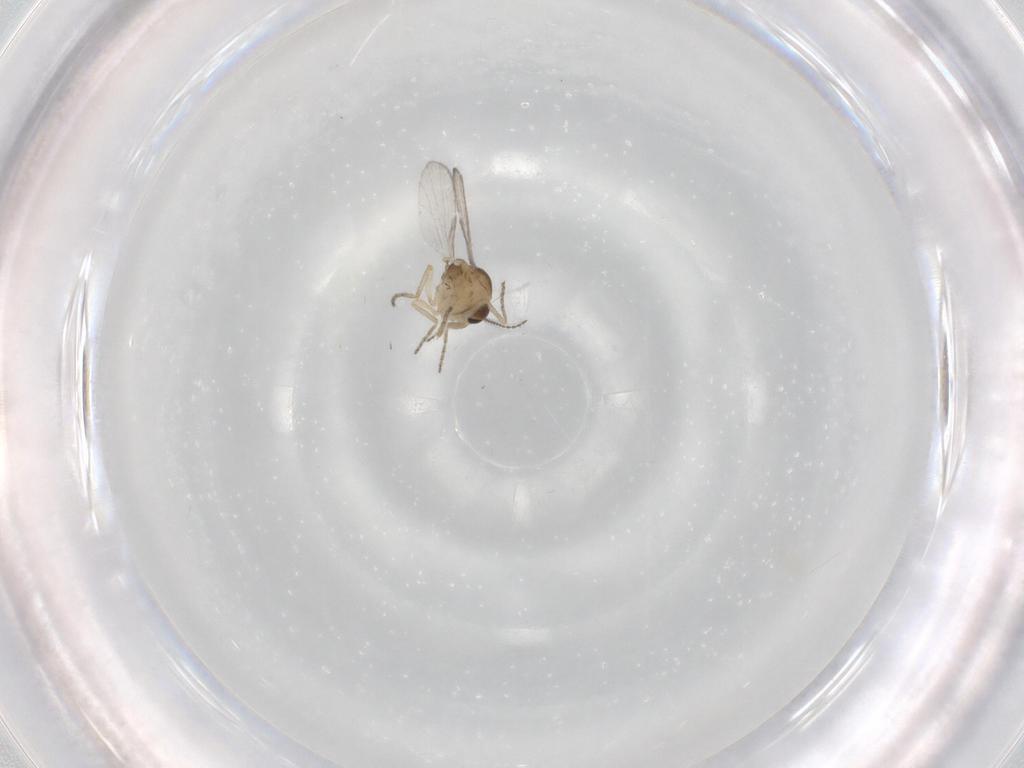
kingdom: Animalia
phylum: Arthropoda
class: Insecta
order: Diptera
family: Ceratopogonidae
